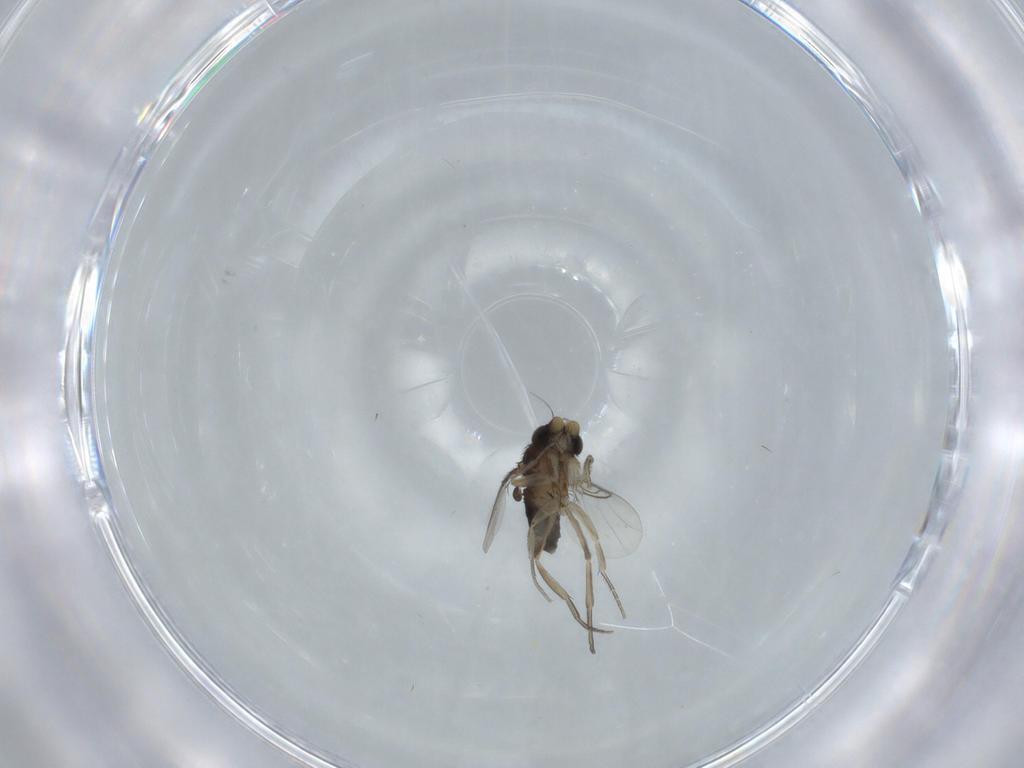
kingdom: Animalia
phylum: Arthropoda
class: Insecta
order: Diptera
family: Phoridae
